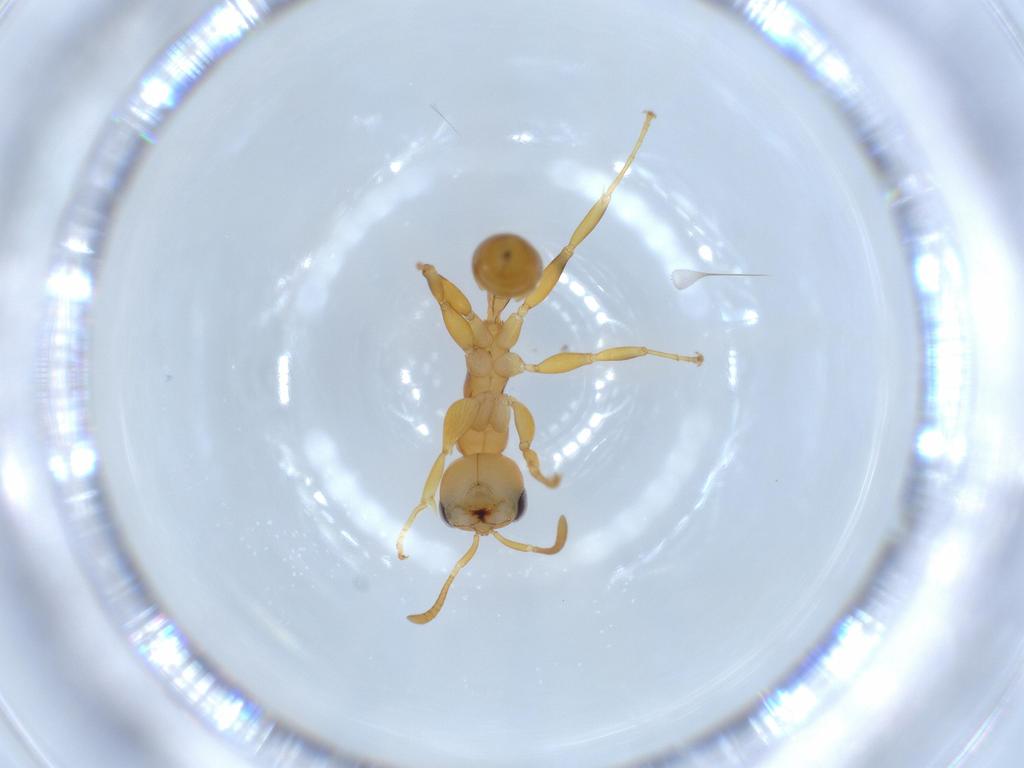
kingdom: Animalia
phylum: Arthropoda
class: Insecta
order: Hymenoptera
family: Formicidae
